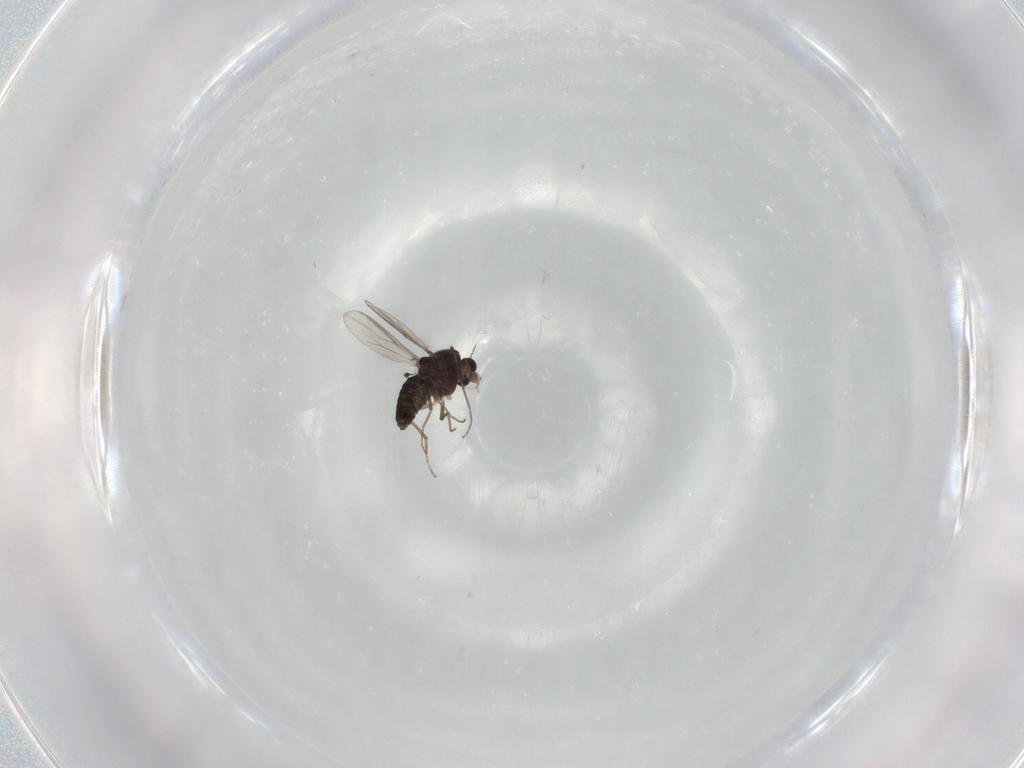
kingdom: Animalia
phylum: Arthropoda
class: Insecta
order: Diptera
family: Chironomidae
